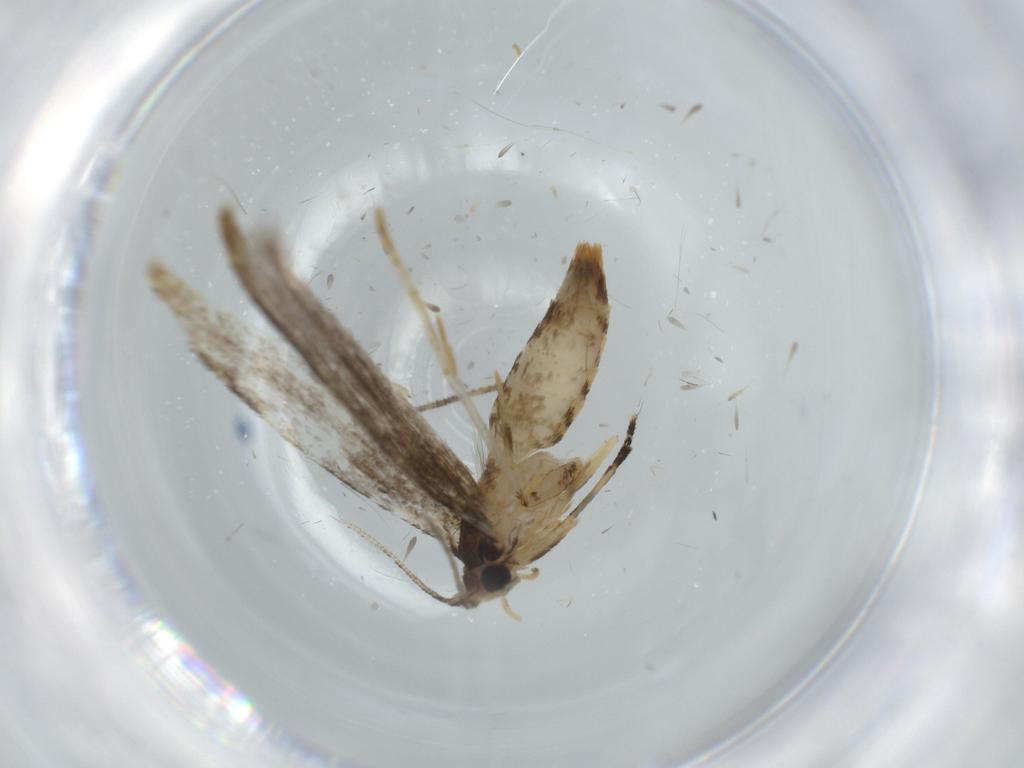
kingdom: Animalia
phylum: Arthropoda
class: Insecta
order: Lepidoptera
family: Tineidae
